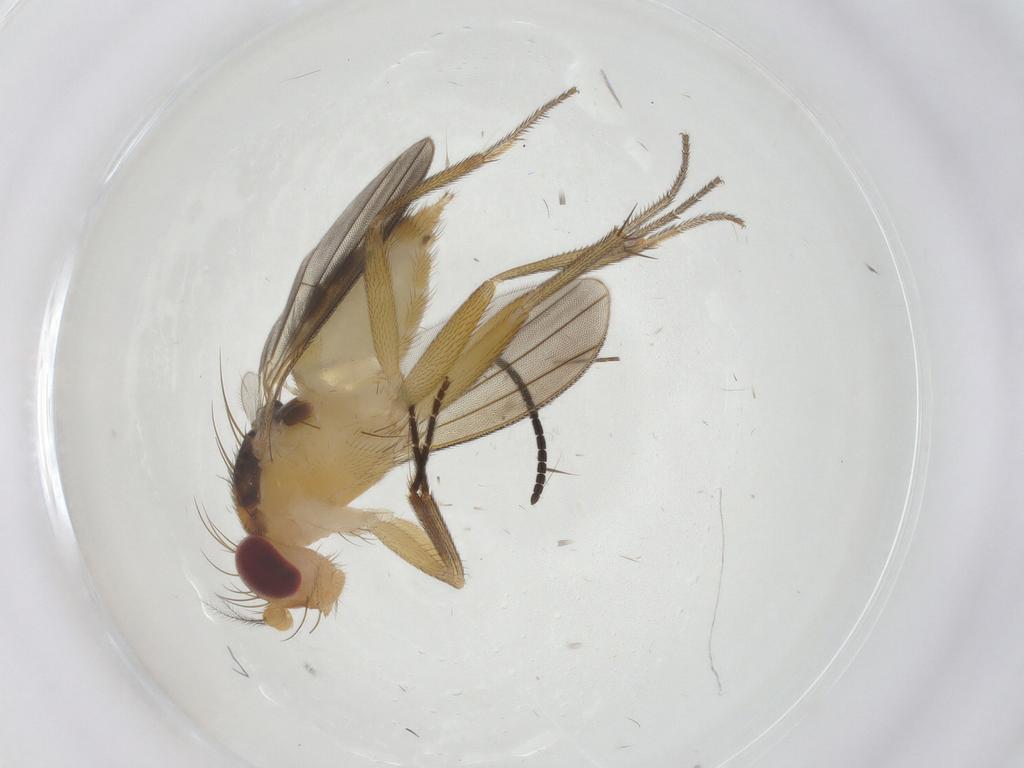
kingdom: Animalia
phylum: Arthropoda
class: Insecta
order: Diptera
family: Clusiidae
